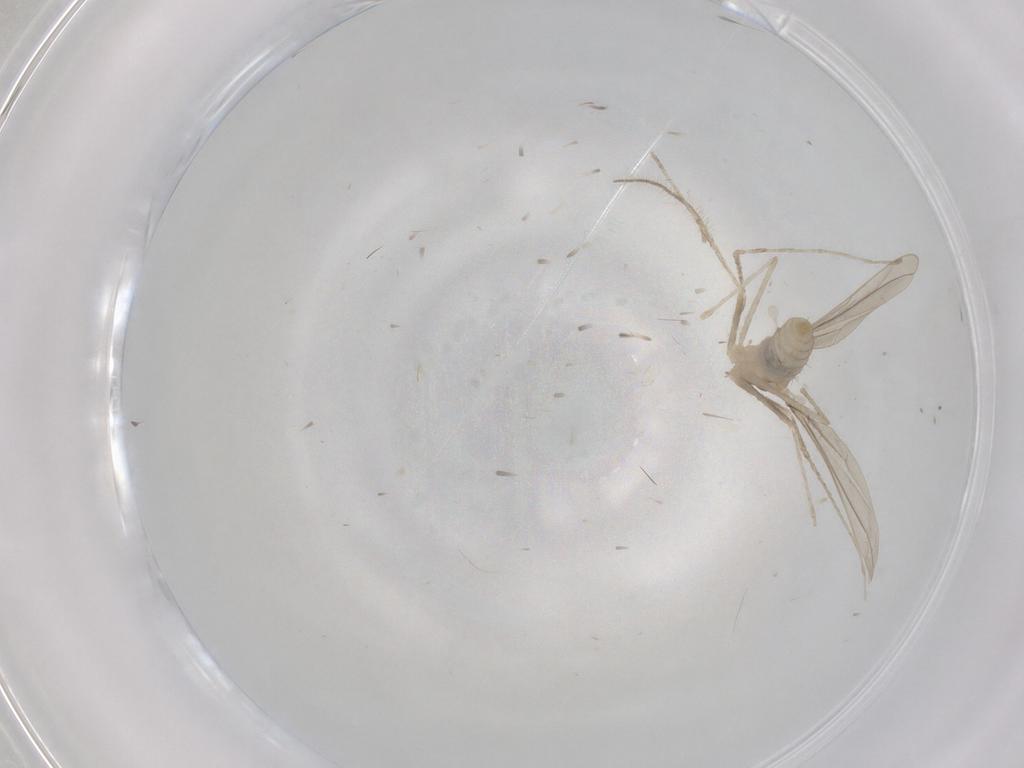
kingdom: Animalia
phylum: Arthropoda
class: Insecta
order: Diptera
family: Cecidomyiidae
